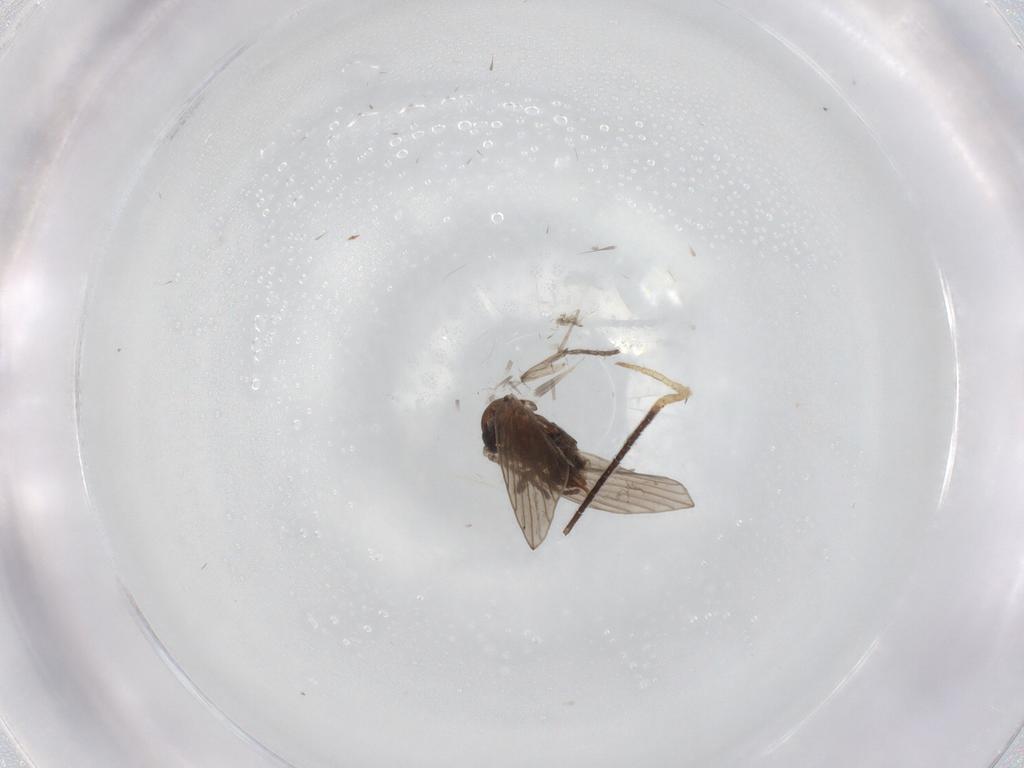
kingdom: Animalia
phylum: Arthropoda
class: Insecta
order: Diptera
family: Psychodidae
